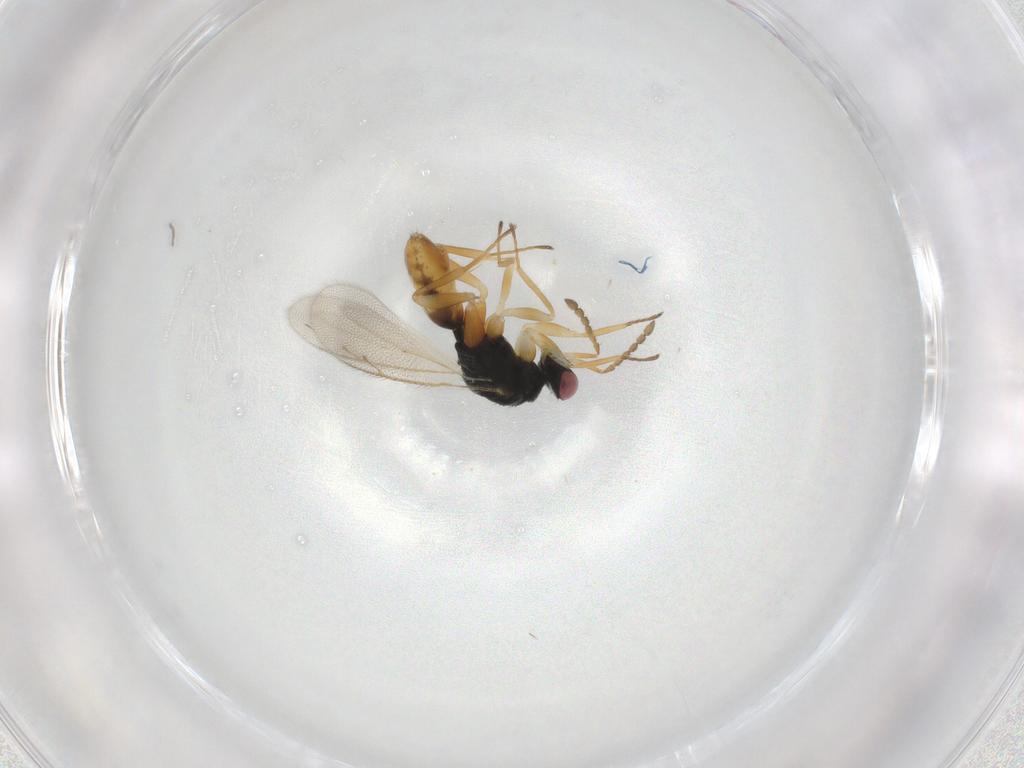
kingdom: Animalia
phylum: Arthropoda
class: Insecta
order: Hymenoptera
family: Eulophidae
